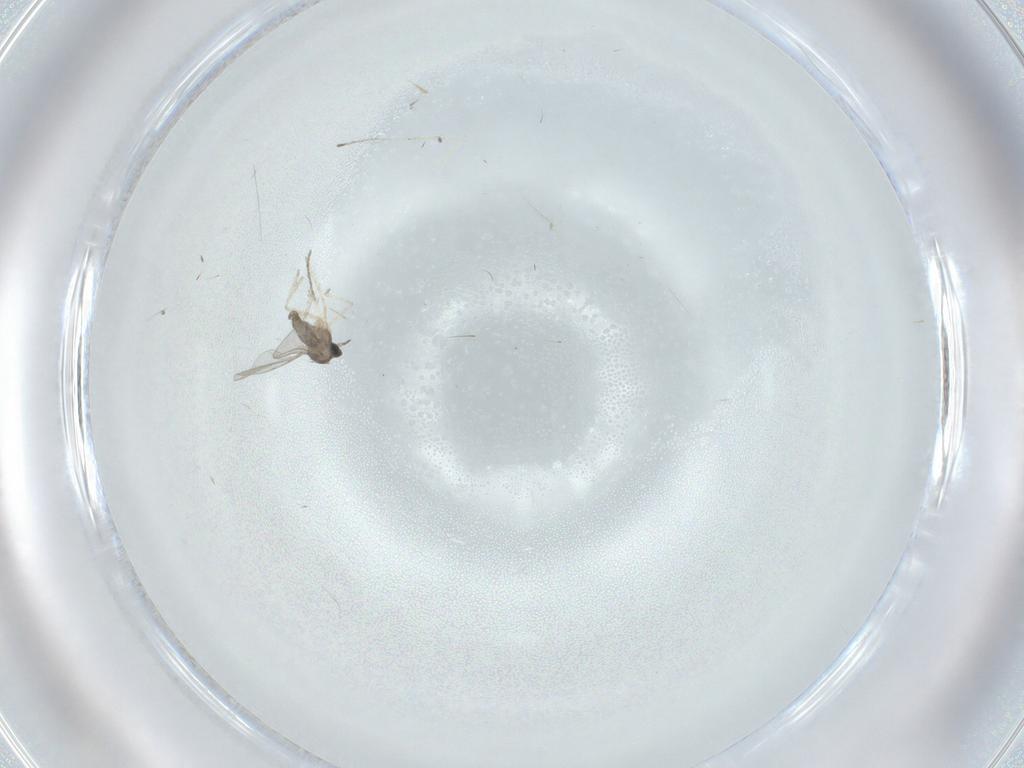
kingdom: Animalia
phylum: Arthropoda
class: Insecta
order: Diptera
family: Cecidomyiidae
